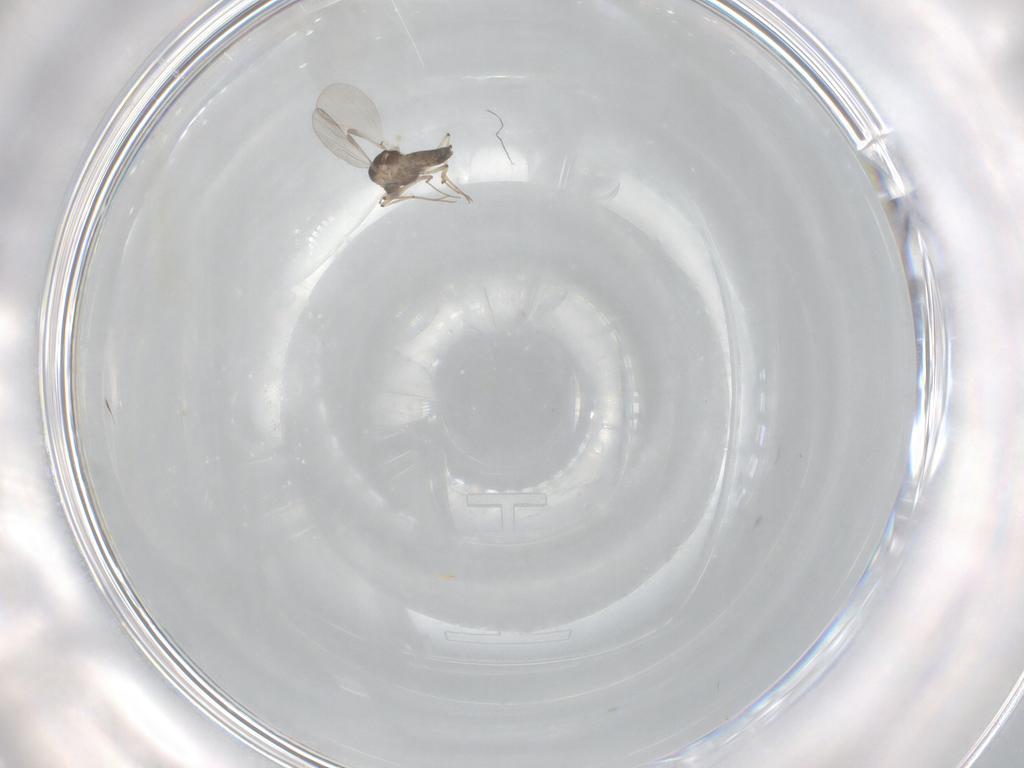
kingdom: Animalia
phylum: Arthropoda
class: Insecta
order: Diptera
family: Chironomidae
